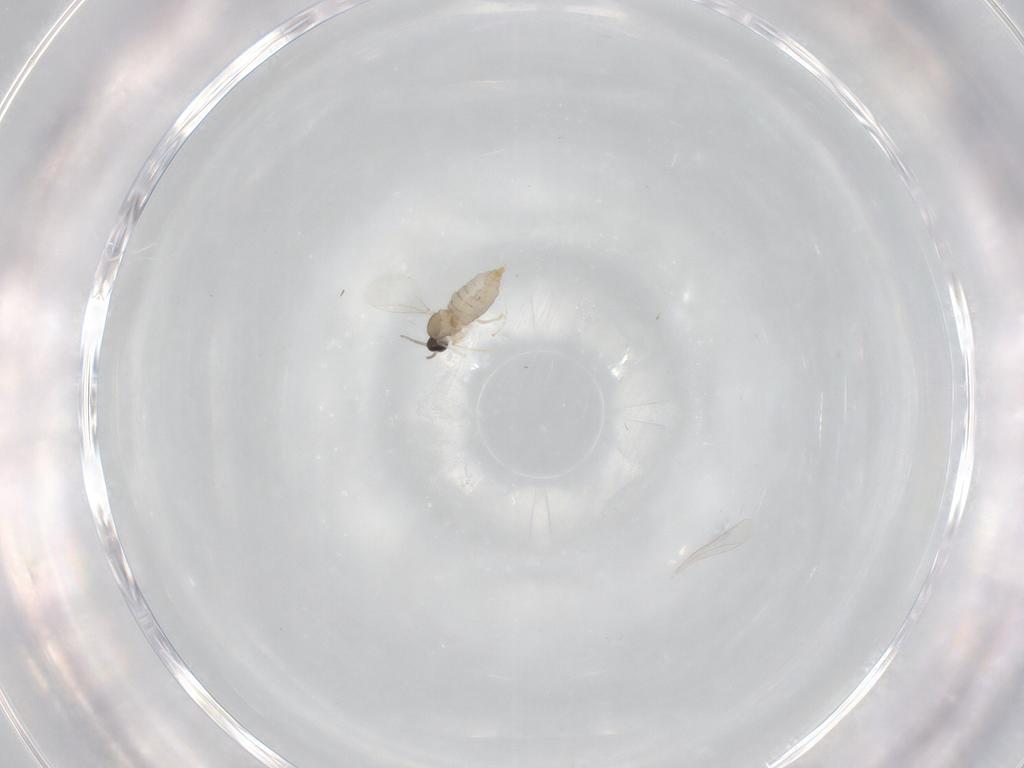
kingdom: Animalia
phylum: Arthropoda
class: Insecta
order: Diptera
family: Cecidomyiidae
